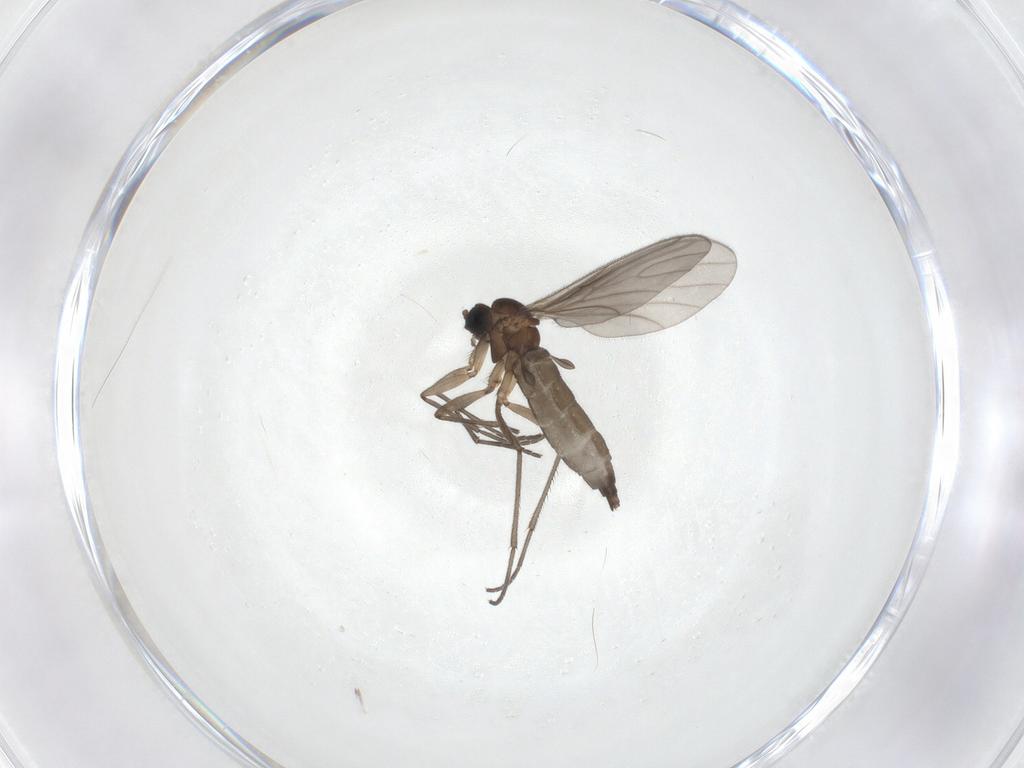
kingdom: Animalia
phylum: Arthropoda
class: Insecta
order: Diptera
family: Sciaridae
